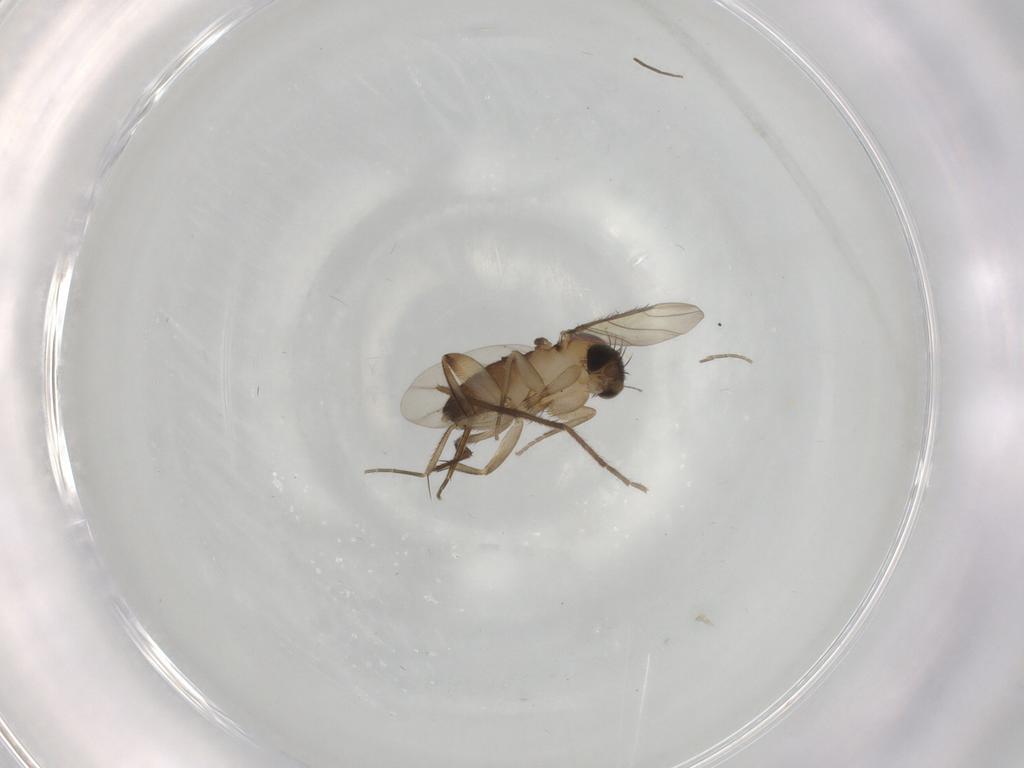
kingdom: Animalia
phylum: Arthropoda
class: Insecta
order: Diptera
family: Phoridae
